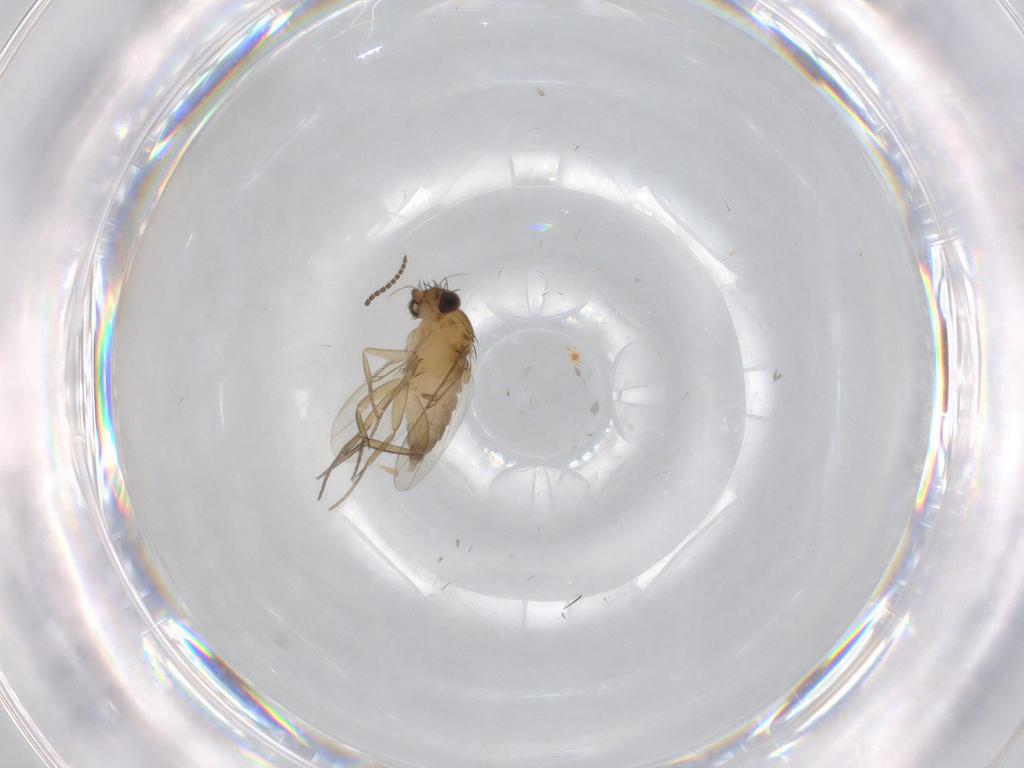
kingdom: Animalia
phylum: Arthropoda
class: Insecta
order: Diptera
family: Phoridae
